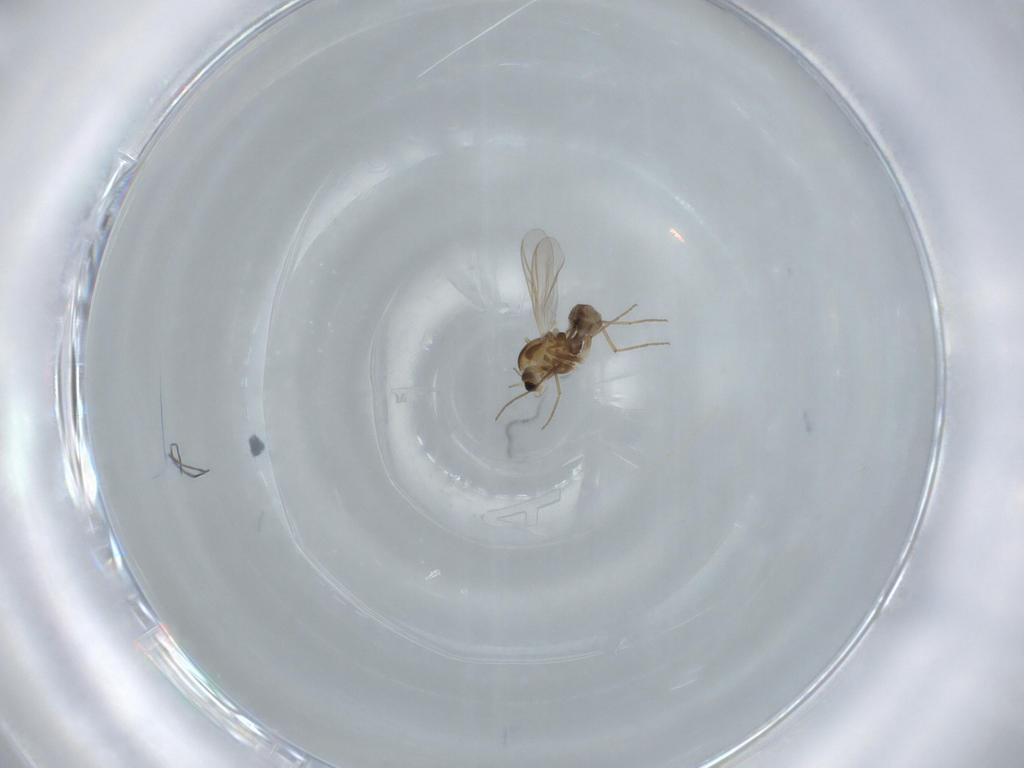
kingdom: Animalia
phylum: Arthropoda
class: Insecta
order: Diptera
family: Chironomidae
